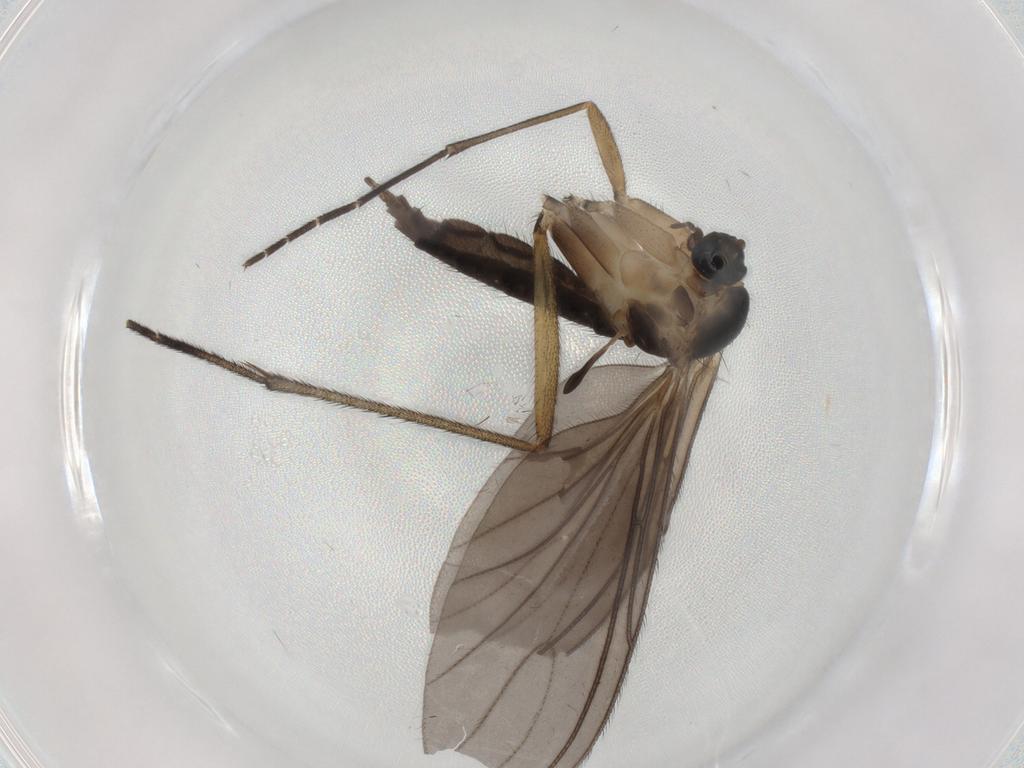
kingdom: Animalia
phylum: Arthropoda
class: Insecta
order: Diptera
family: Sciaridae
